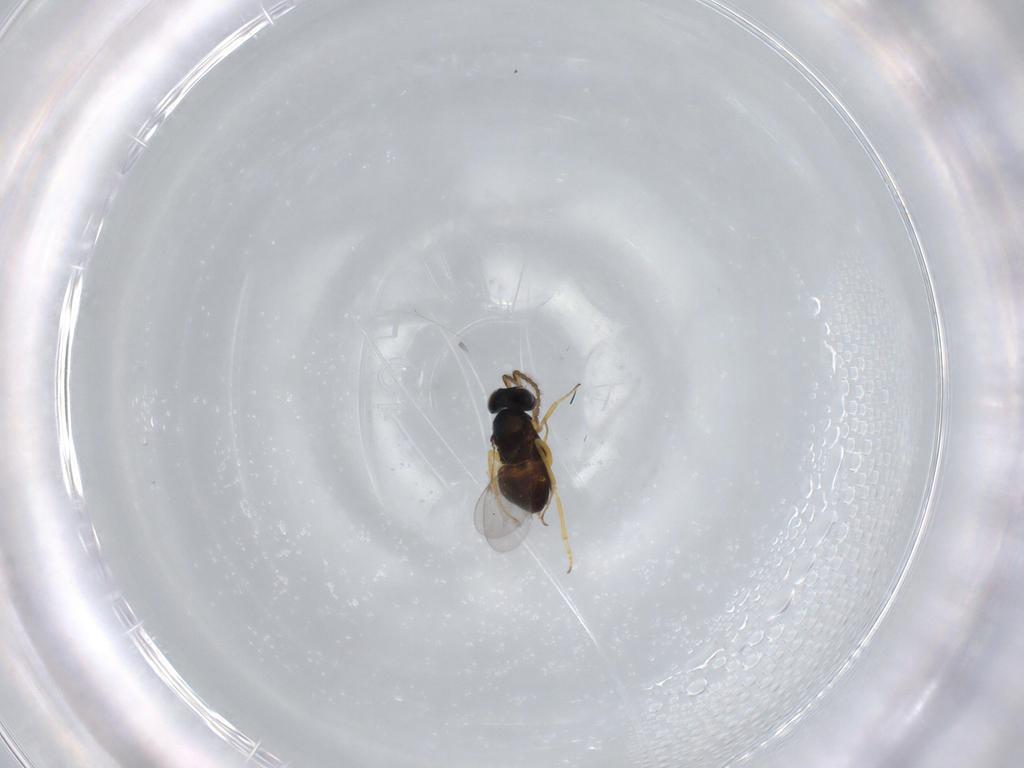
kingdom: Animalia
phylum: Arthropoda
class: Insecta
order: Hymenoptera
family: Encyrtidae
